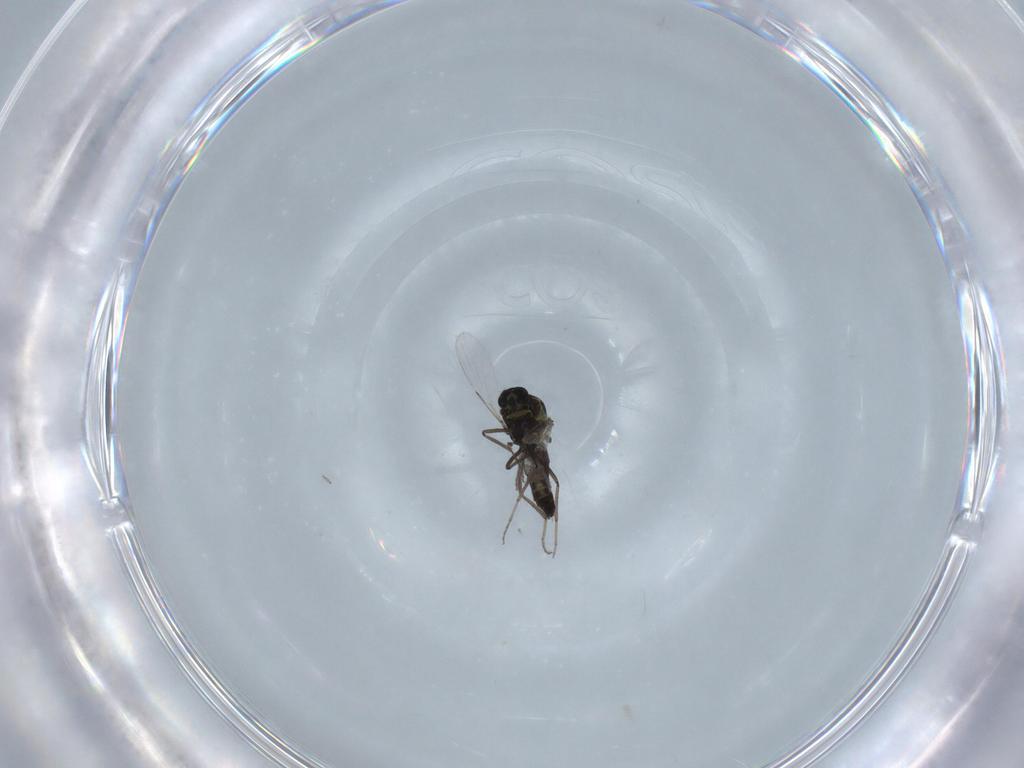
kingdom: Animalia
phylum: Arthropoda
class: Insecta
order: Diptera
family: Ceratopogonidae
